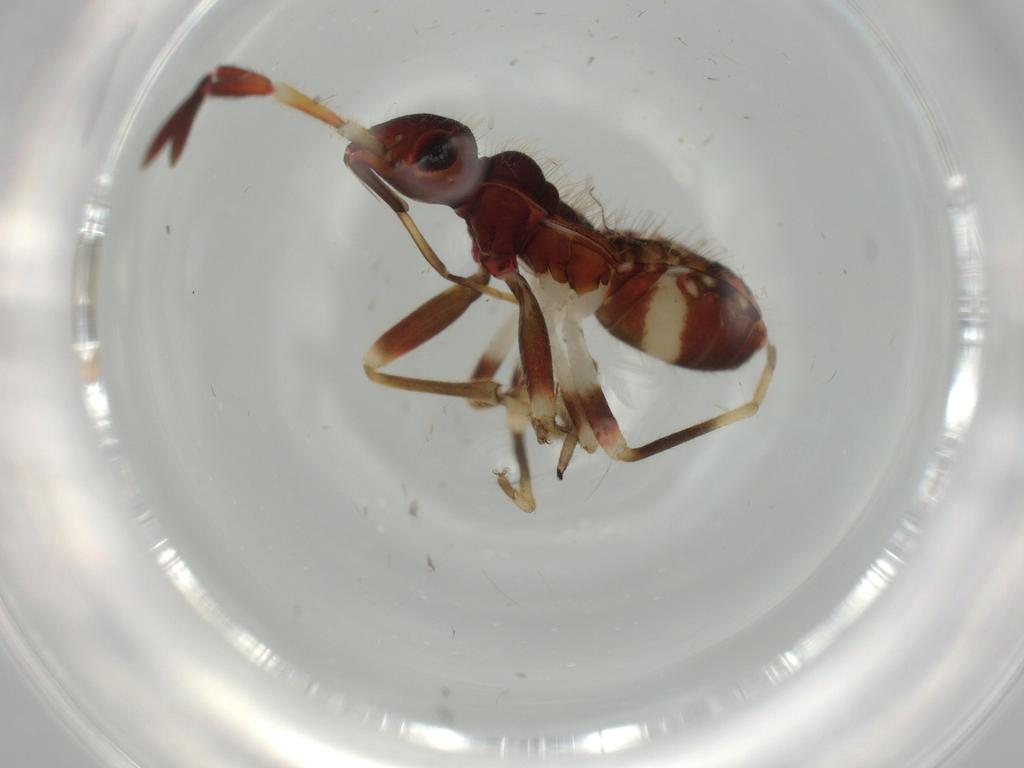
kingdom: Animalia
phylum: Arthropoda
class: Insecta
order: Hemiptera
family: Rhyparochromidae
